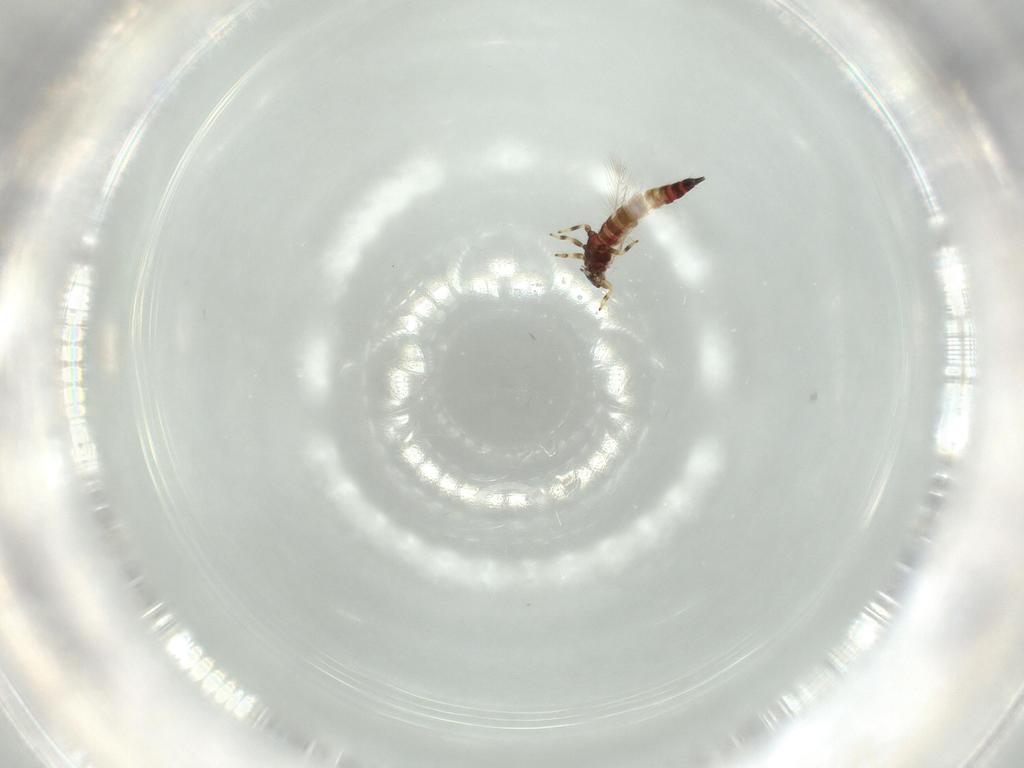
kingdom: Animalia
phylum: Arthropoda
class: Insecta
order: Thysanoptera
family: Phlaeothripidae
